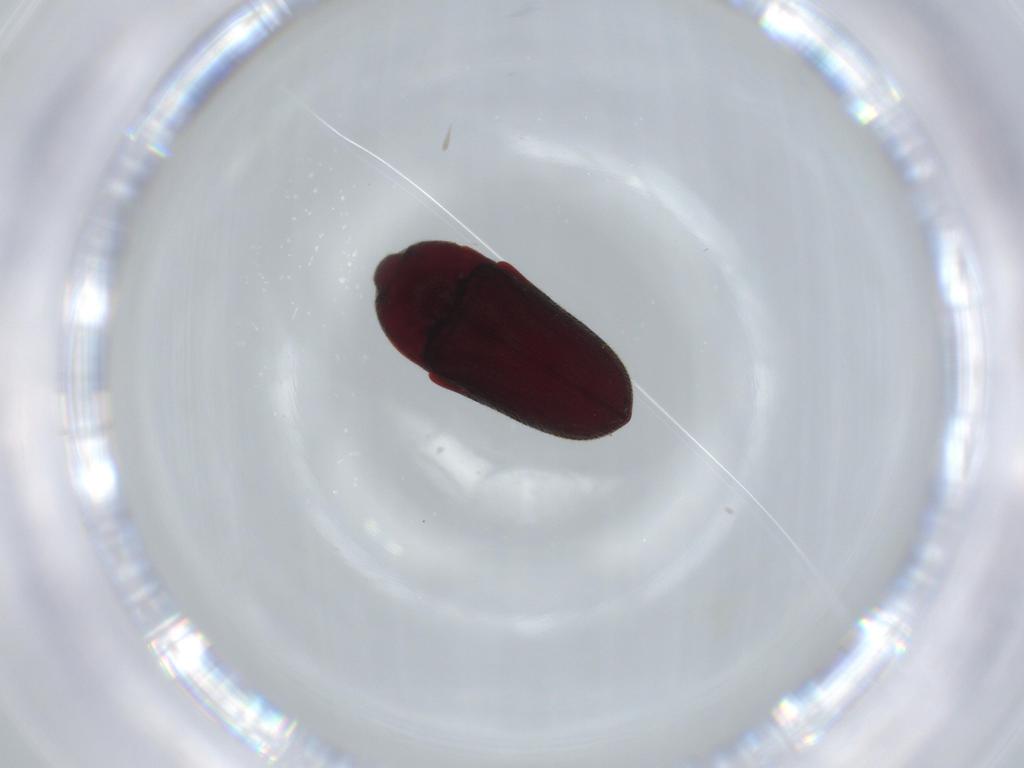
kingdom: Animalia
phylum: Arthropoda
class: Insecta
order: Coleoptera
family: Throscidae
